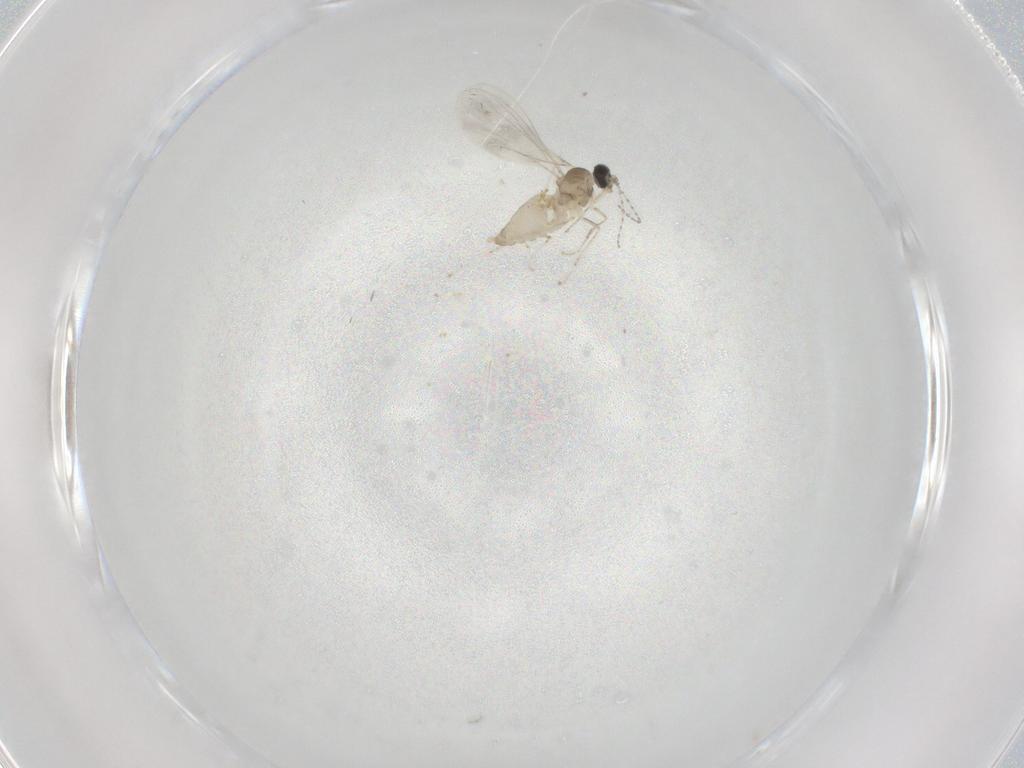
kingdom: Animalia
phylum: Arthropoda
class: Insecta
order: Diptera
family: Cecidomyiidae
